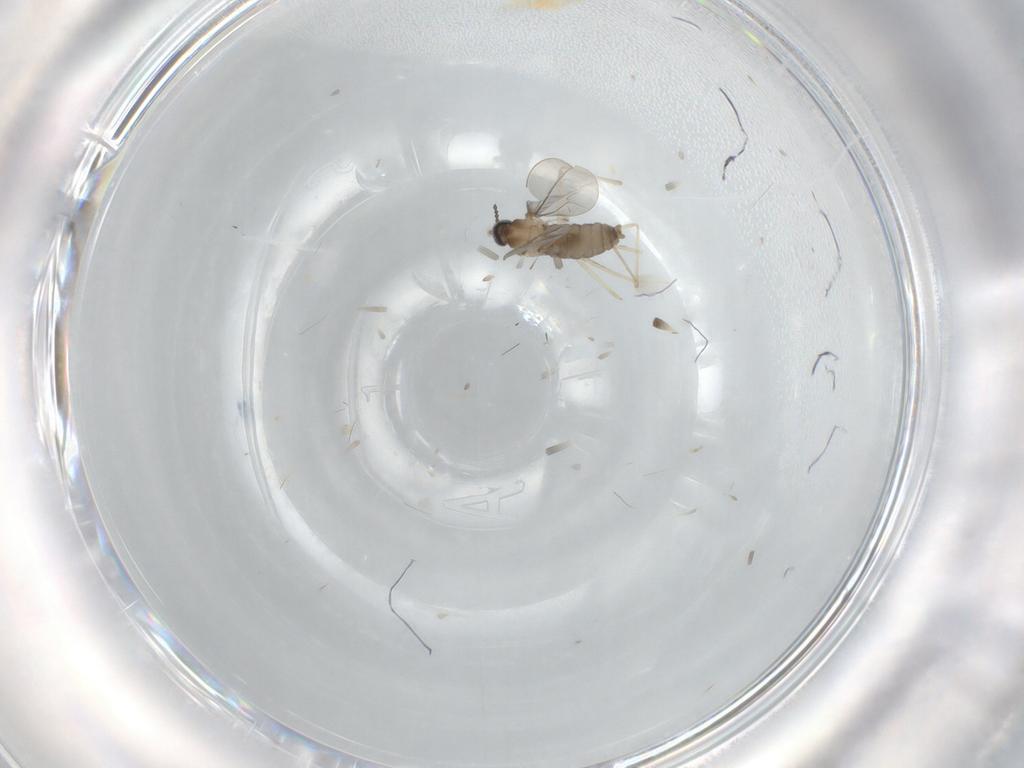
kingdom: Animalia
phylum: Arthropoda
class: Insecta
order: Diptera
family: Cecidomyiidae
